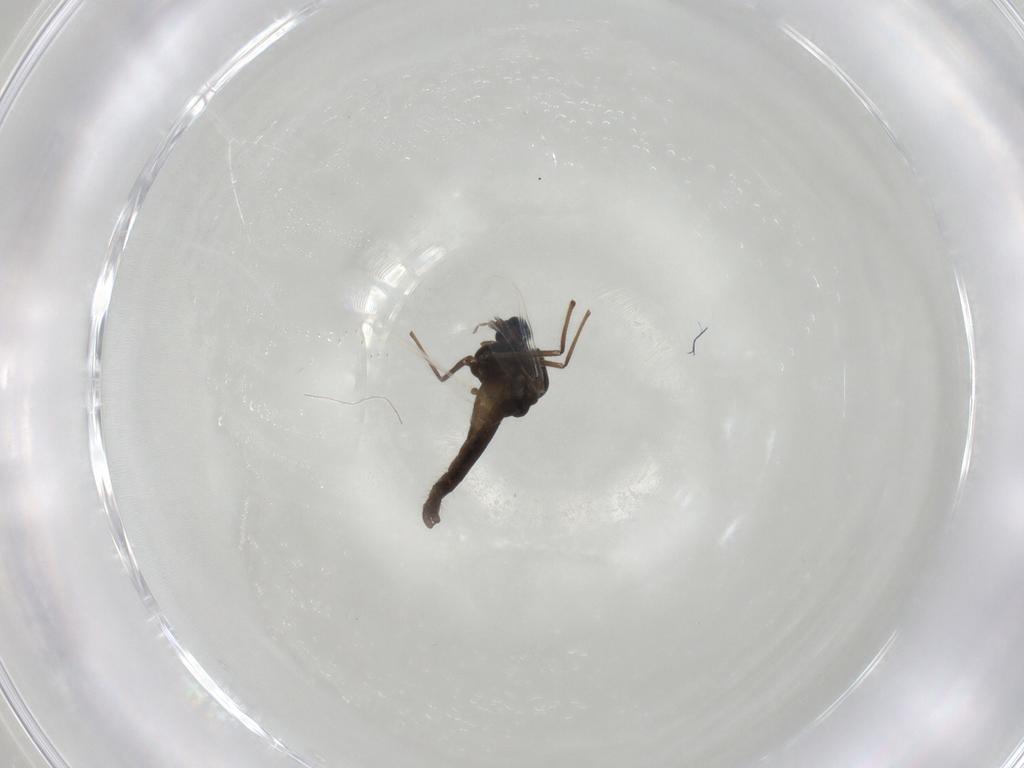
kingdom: Animalia
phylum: Arthropoda
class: Insecta
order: Diptera
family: Chironomidae
